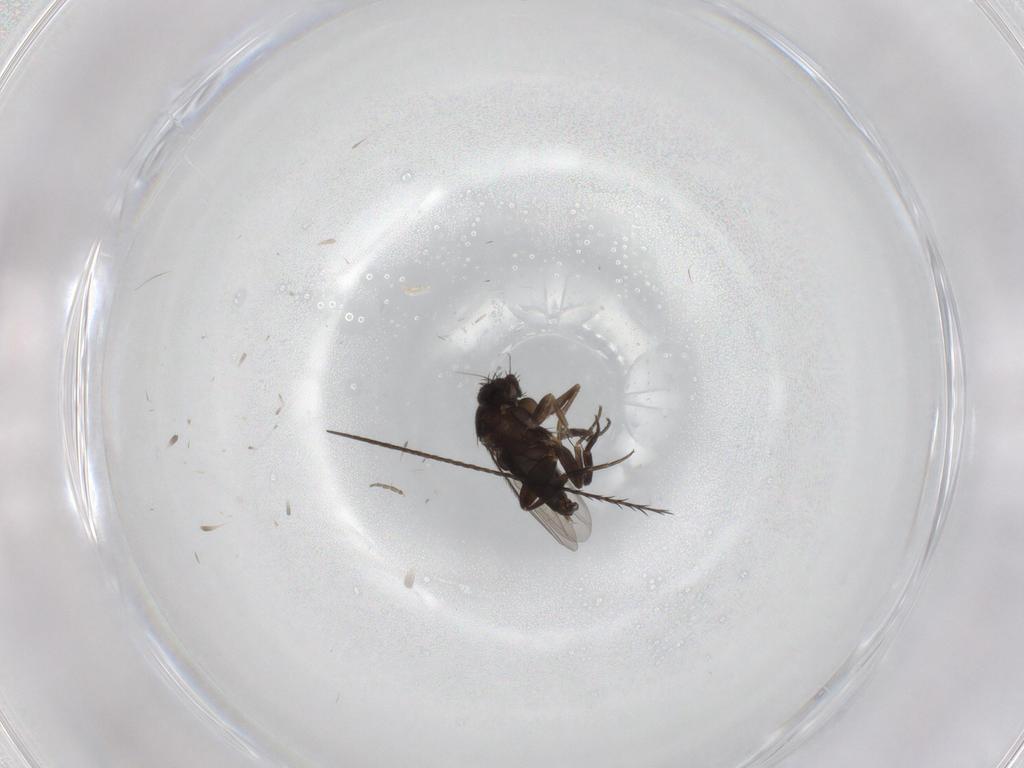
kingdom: Animalia
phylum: Arthropoda
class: Insecta
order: Diptera
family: Phoridae
